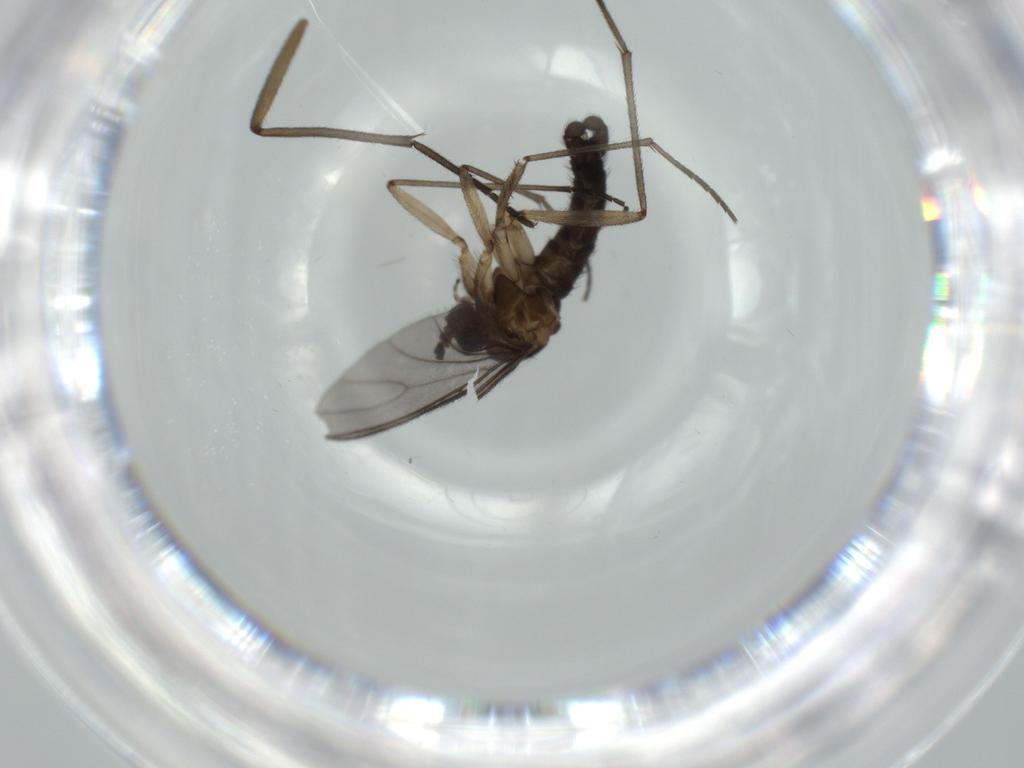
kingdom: Animalia
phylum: Arthropoda
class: Insecta
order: Diptera
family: Sciaridae
